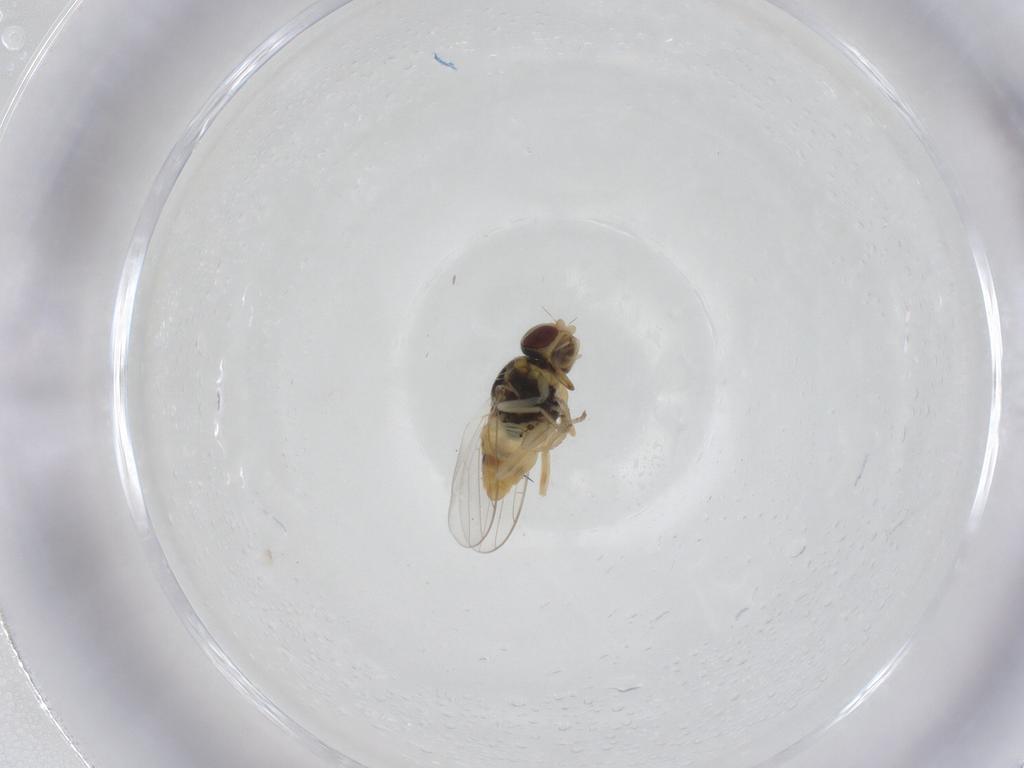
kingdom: Animalia
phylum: Arthropoda
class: Insecta
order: Diptera
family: Chloropidae
